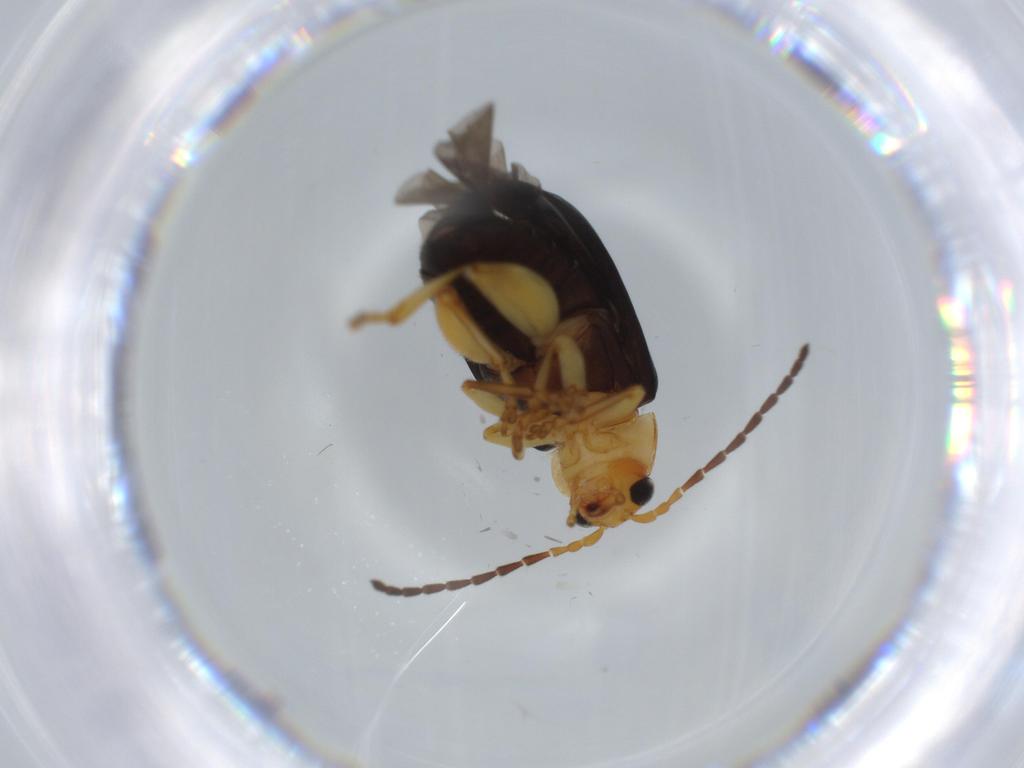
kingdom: Animalia
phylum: Arthropoda
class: Insecta
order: Coleoptera
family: Chrysomelidae
